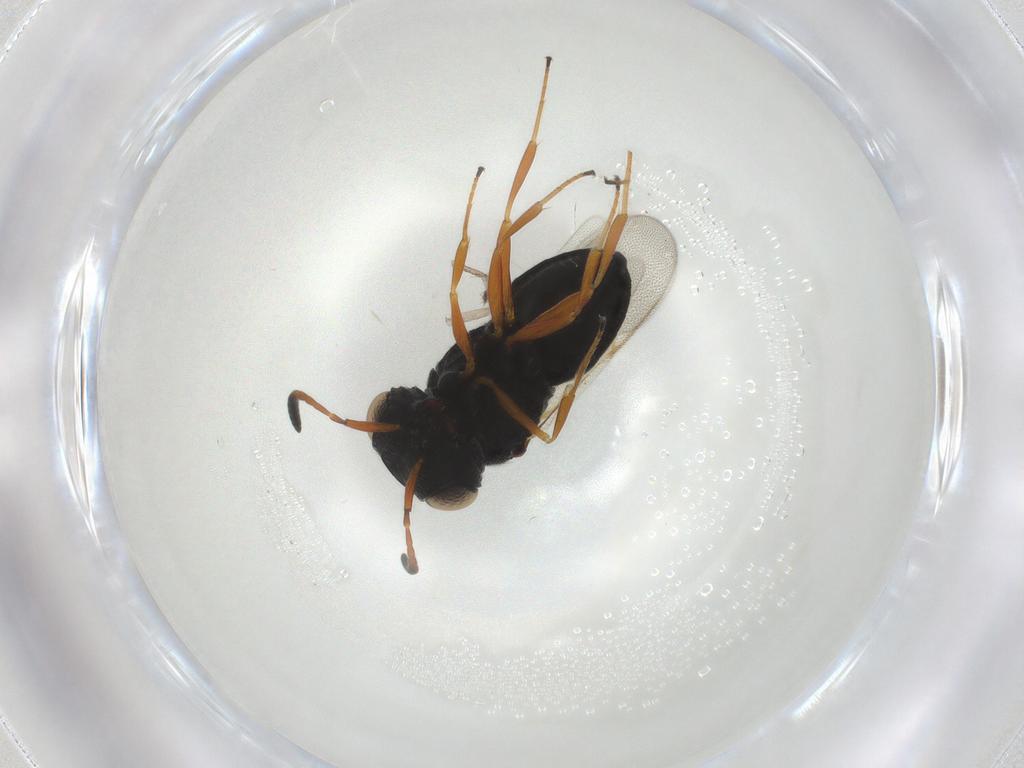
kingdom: Animalia
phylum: Arthropoda
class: Insecta
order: Hymenoptera
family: Scelionidae
